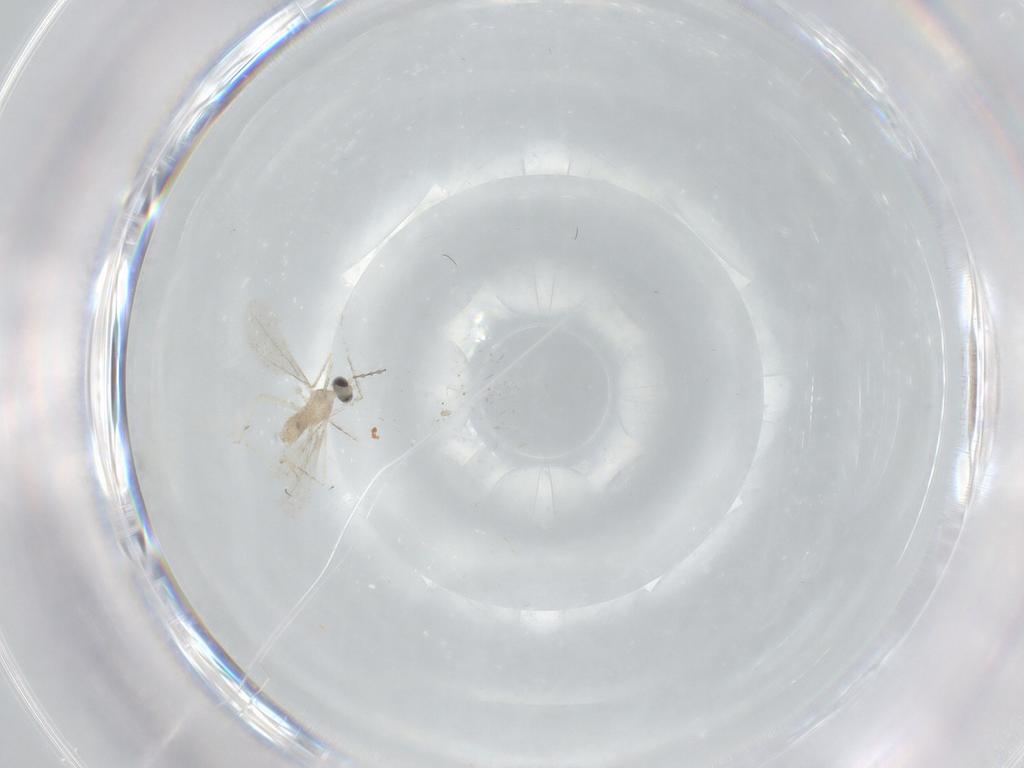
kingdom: Animalia
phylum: Arthropoda
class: Insecta
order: Diptera
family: Cecidomyiidae
